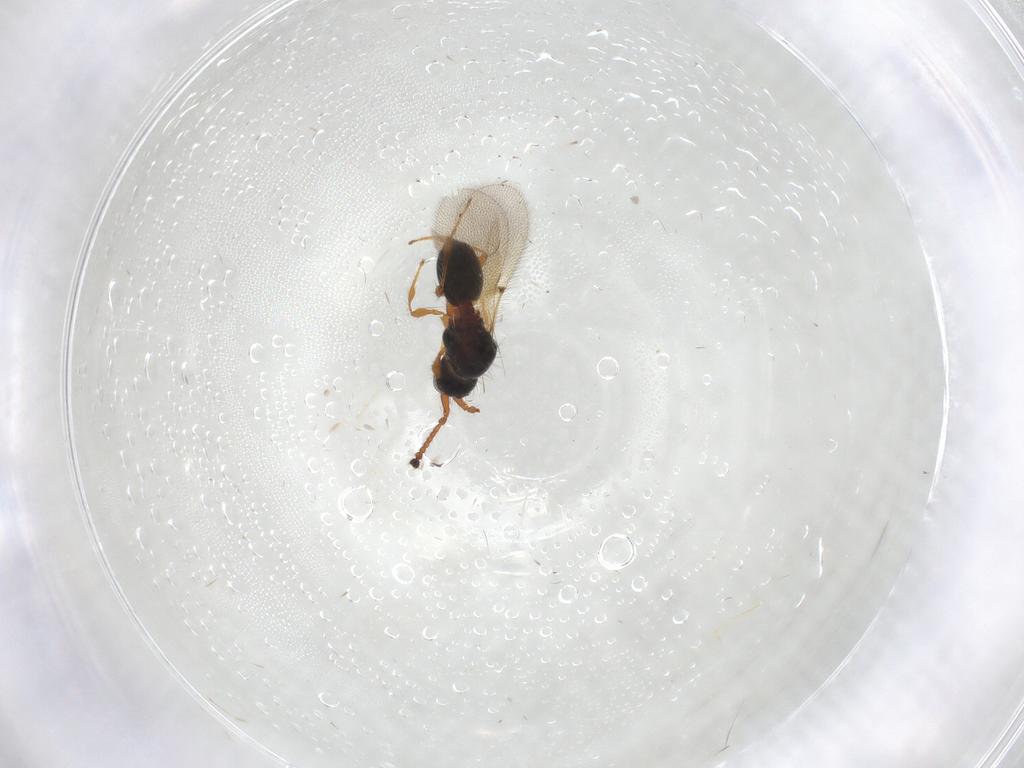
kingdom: Animalia
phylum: Arthropoda
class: Insecta
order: Hymenoptera
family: Diapriidae
